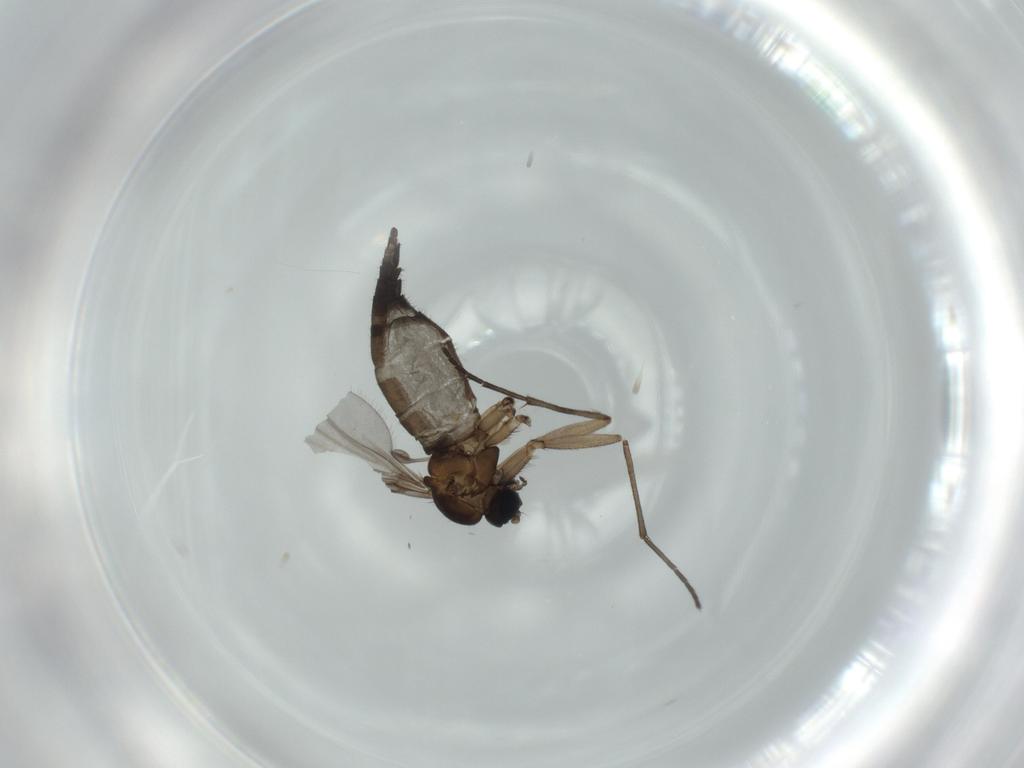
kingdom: Animalia
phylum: Arthropoda
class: Insecta
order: Diptera
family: Sciaridae
